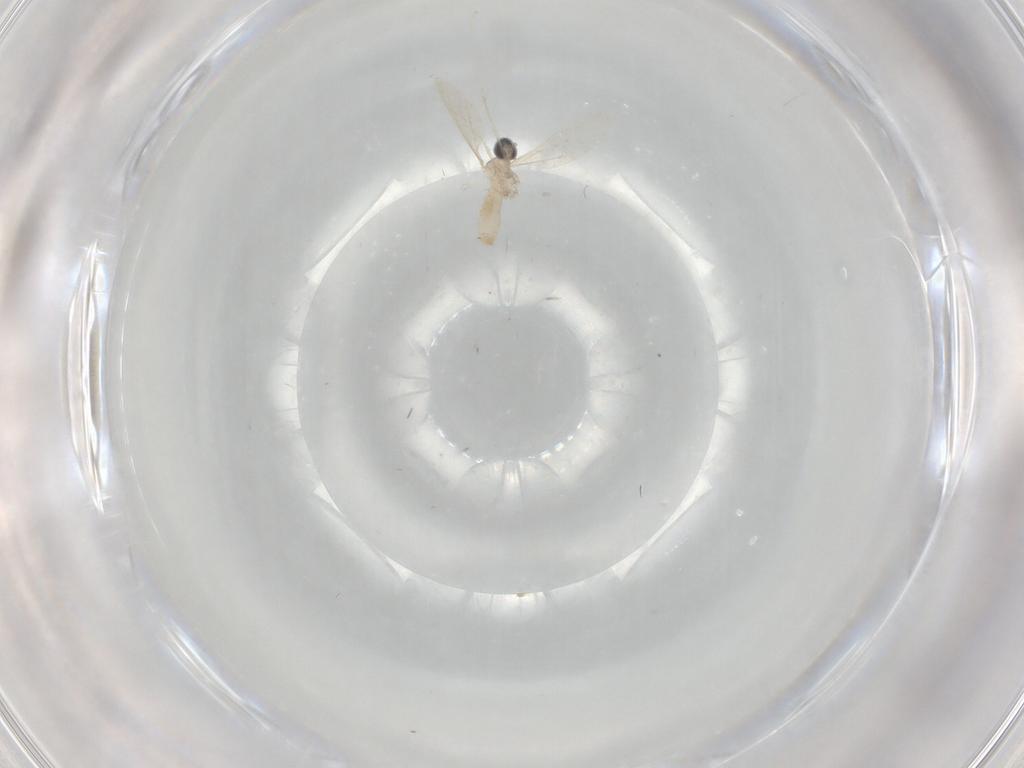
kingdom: Animalia
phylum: Arthropoda
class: Insecta
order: Diptera
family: Cecidomyiidae
